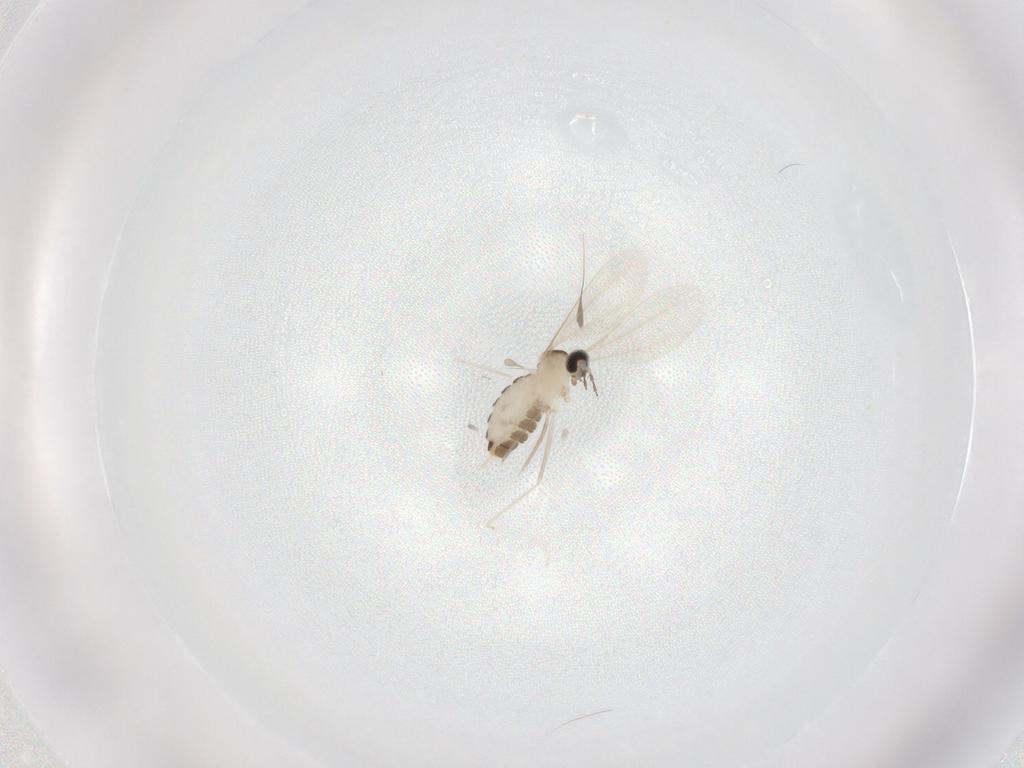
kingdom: Animalia
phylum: Arthropoda
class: Insecta
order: Diptera
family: Cecidomyiidae
